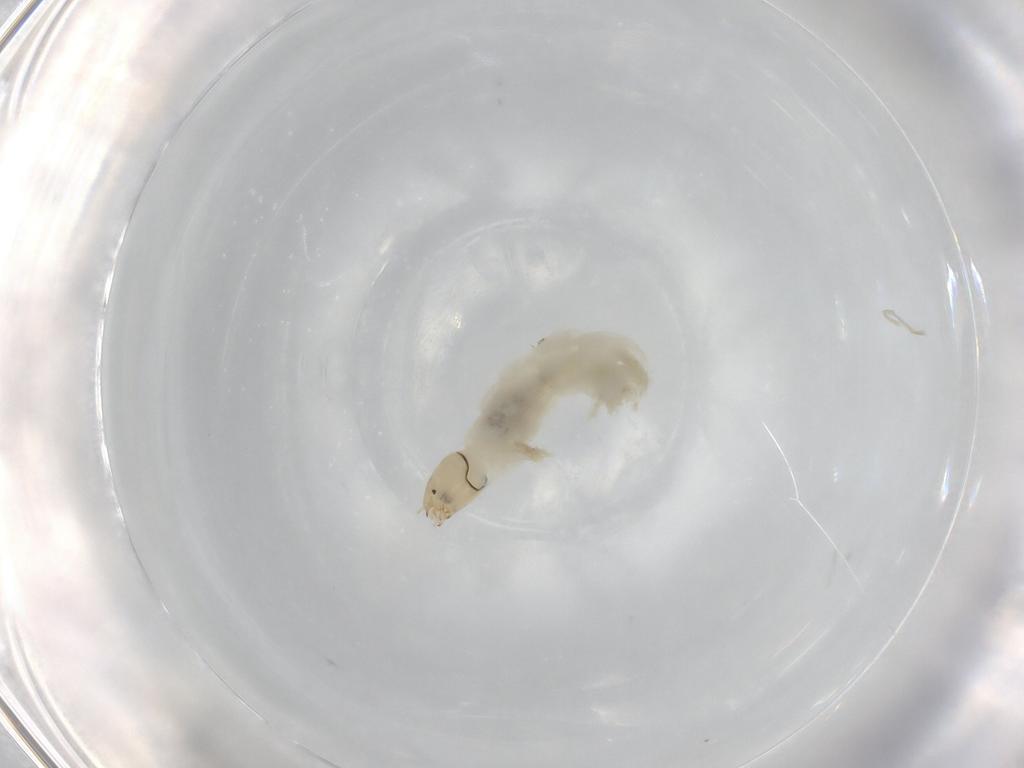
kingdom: Animalia
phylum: Arthropoda
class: Insecta
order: Diptera
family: Chironomidae
